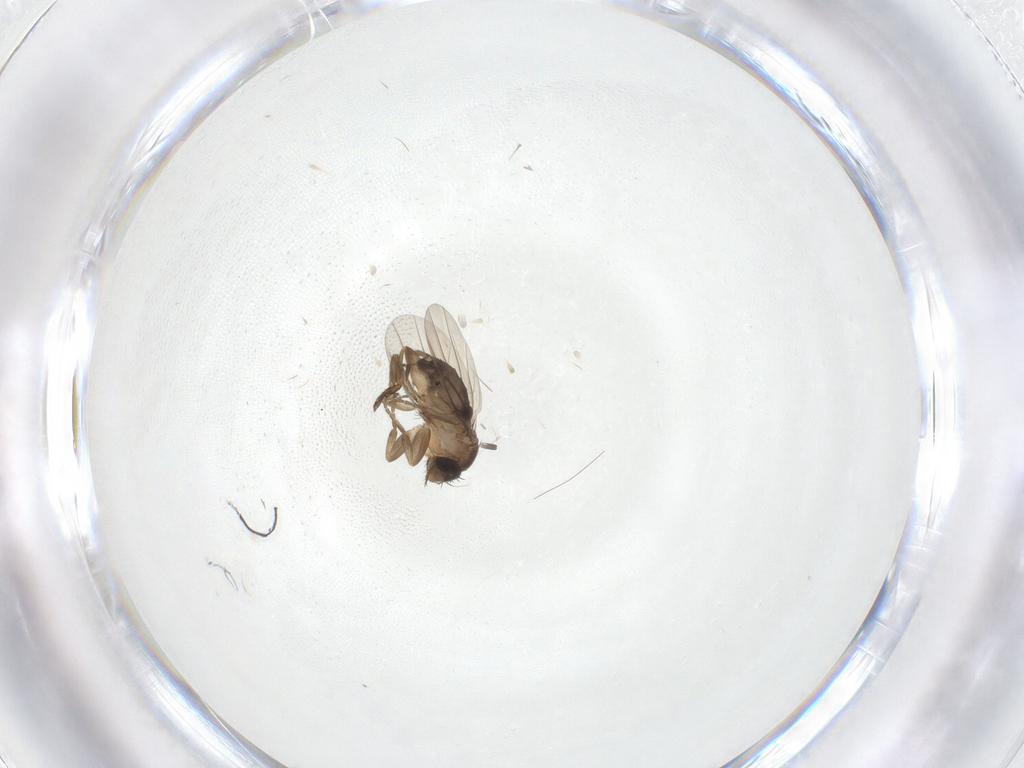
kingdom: Animalia
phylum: Arthropoda
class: Insecta
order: Diptera
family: Phoridae
